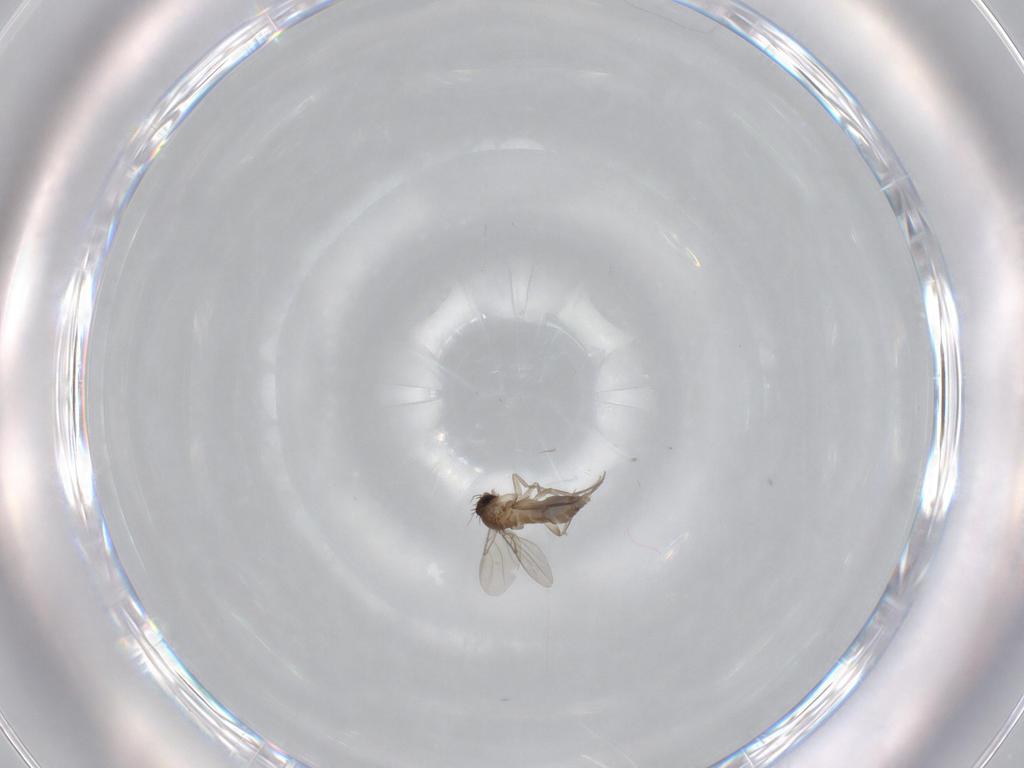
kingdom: Animalia
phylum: Arthropoda
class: Insecta
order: Diptera
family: Phoridae
